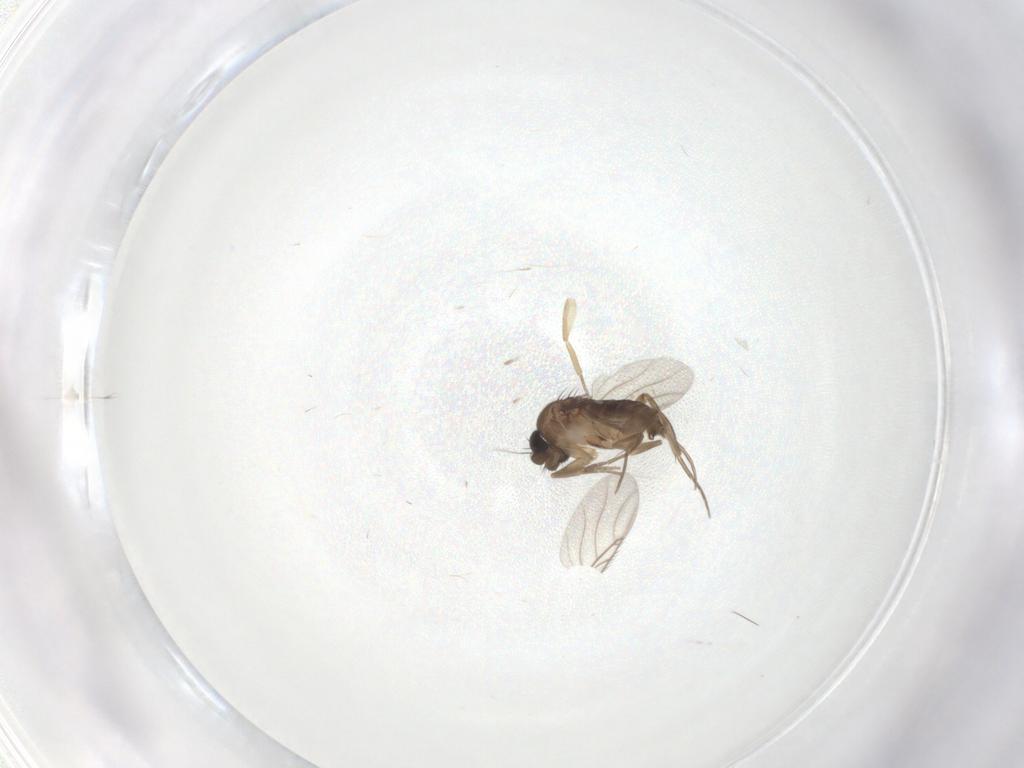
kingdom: Animalia
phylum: Arthropoda
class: Insecta
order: Diptera
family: Phoridae
